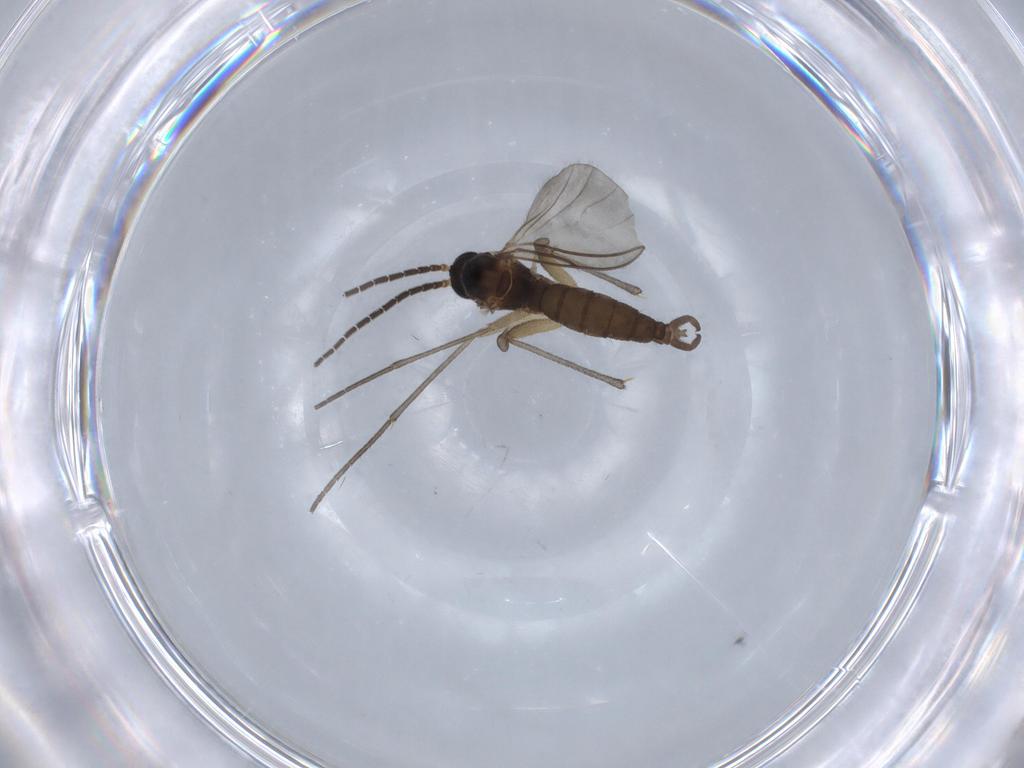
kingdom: Animalia
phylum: Arthropoda
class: Insecta
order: Diptera
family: Sciaridae
